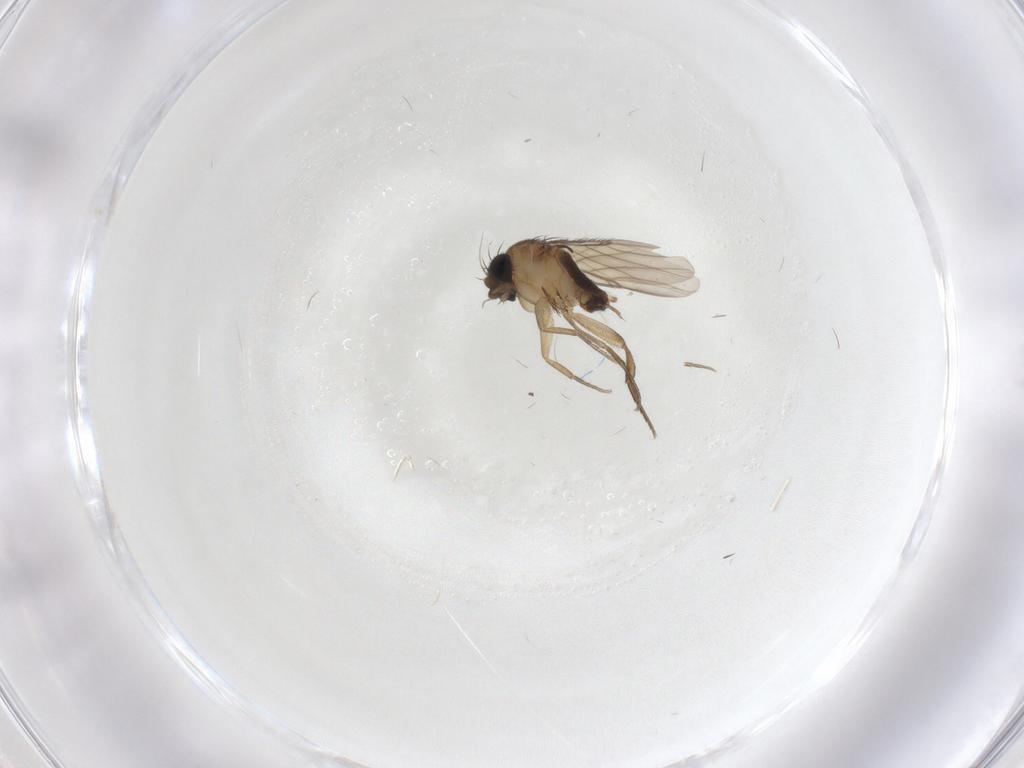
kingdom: Animalia
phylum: Arthropoda
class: Insecta
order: Diptera
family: Phoridae
